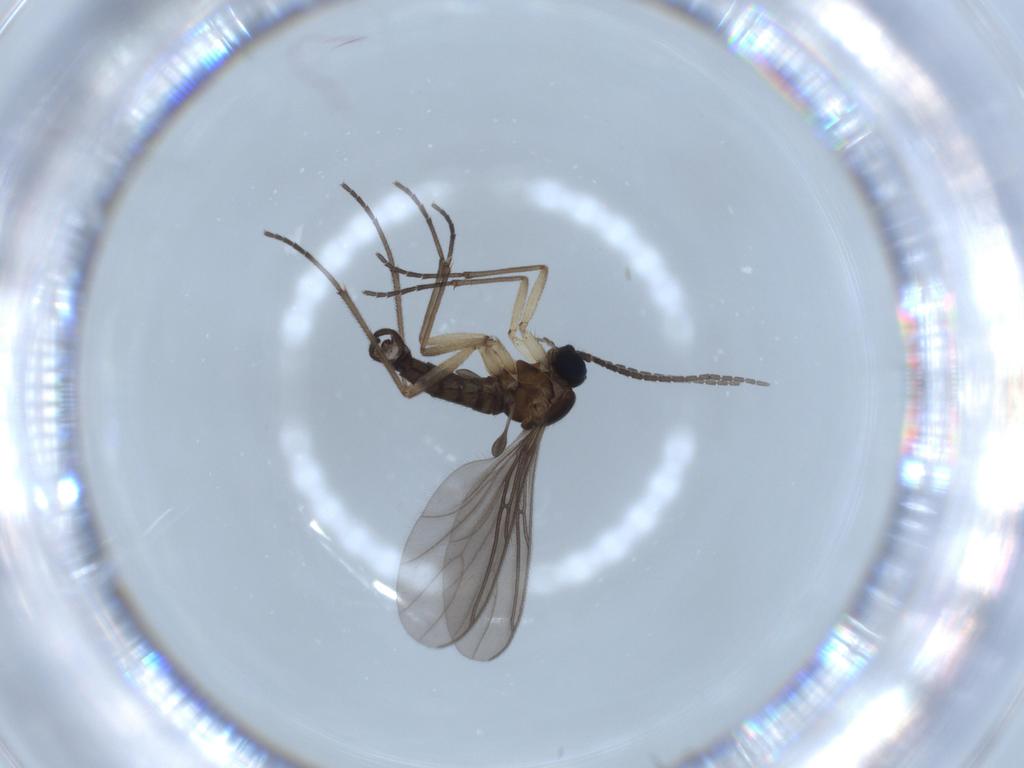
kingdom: Animalia
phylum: Arthropoda
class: Insecta
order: Diptera
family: Sciaridae
